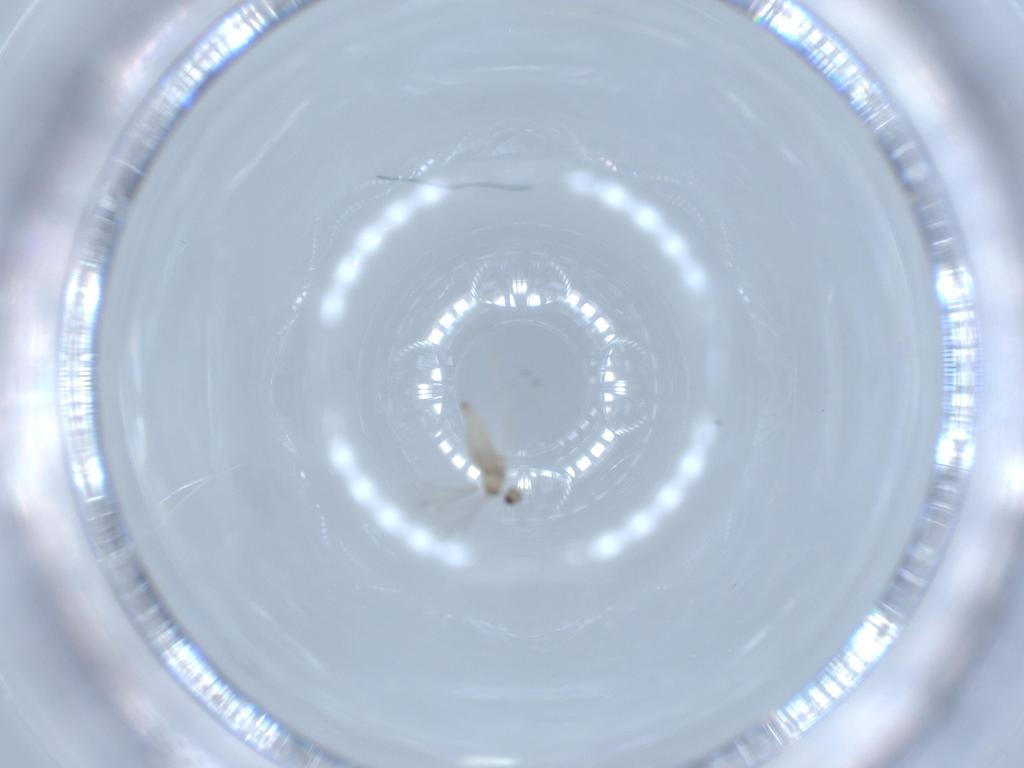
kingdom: Animalia
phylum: Arthropoda
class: Insecta
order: Diptera
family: Cecidomyiidae
